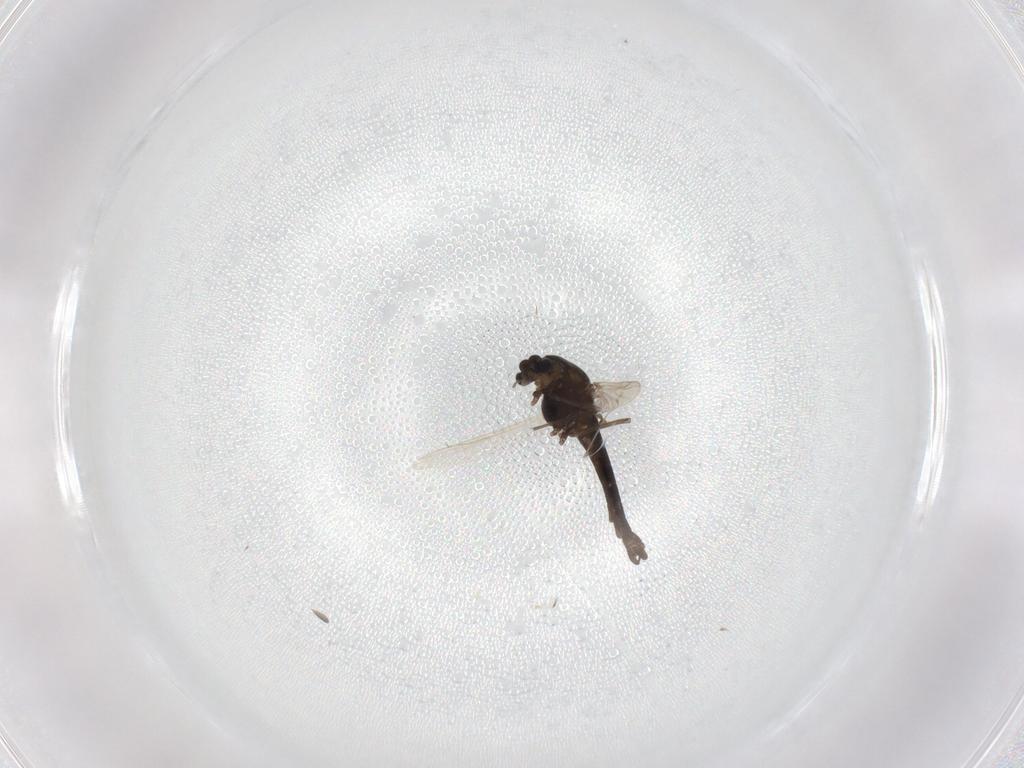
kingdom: Animalia
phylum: Arthropoda
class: Insecta
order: Diptera
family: Chironomidae
